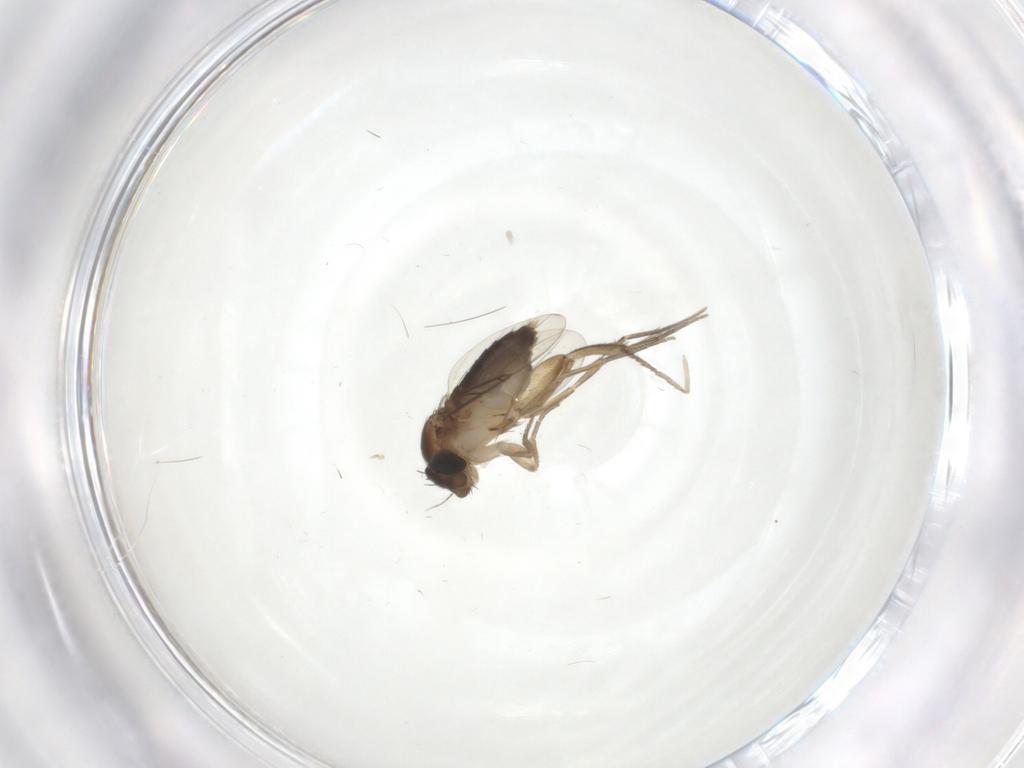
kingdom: Animalia
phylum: Arthropoda
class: Insecta
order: Diptera
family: Phoridae
